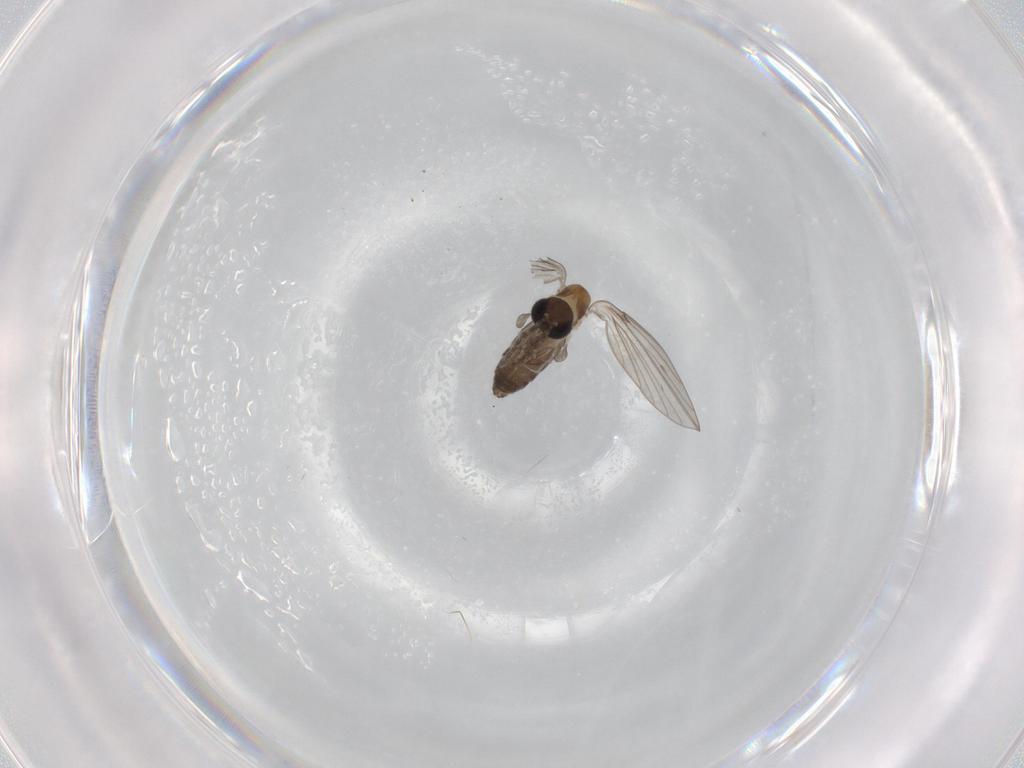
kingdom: Animalia
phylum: Arthropoda
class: Insecta
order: Diptera
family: Psychodidae
